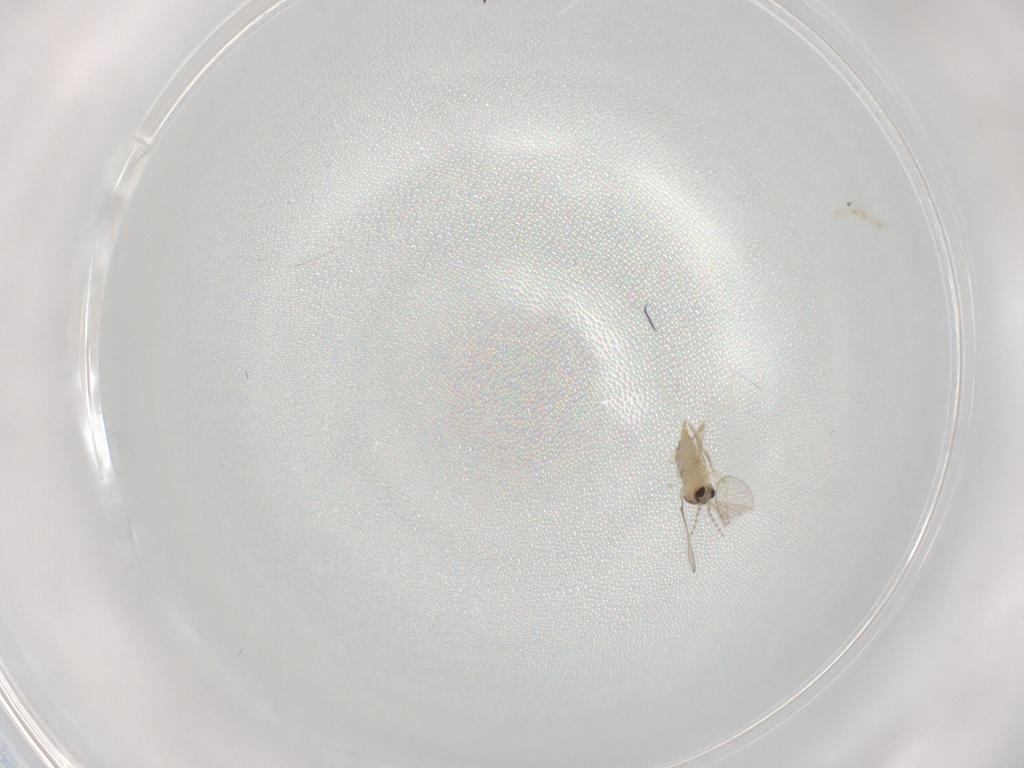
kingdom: Animalia
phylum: Arthropoda
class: Insecta
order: Diptera
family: Cecidomyiidae
